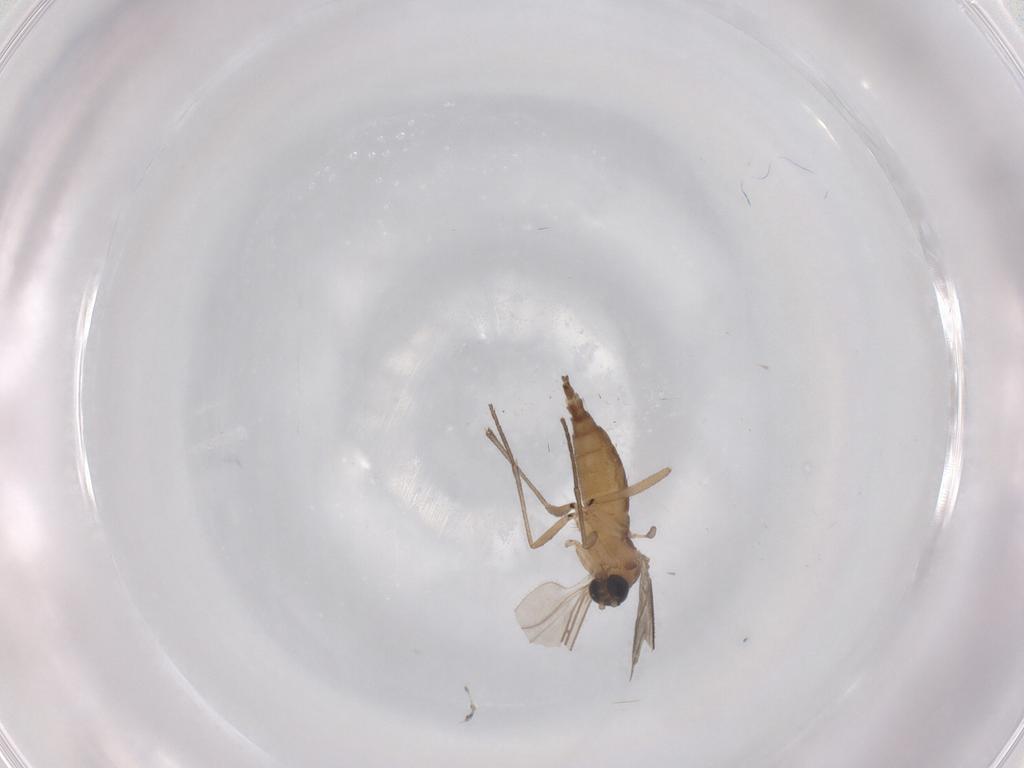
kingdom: Animalia
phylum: Arthropoda
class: Insecta
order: Diptera
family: Sciaridae
